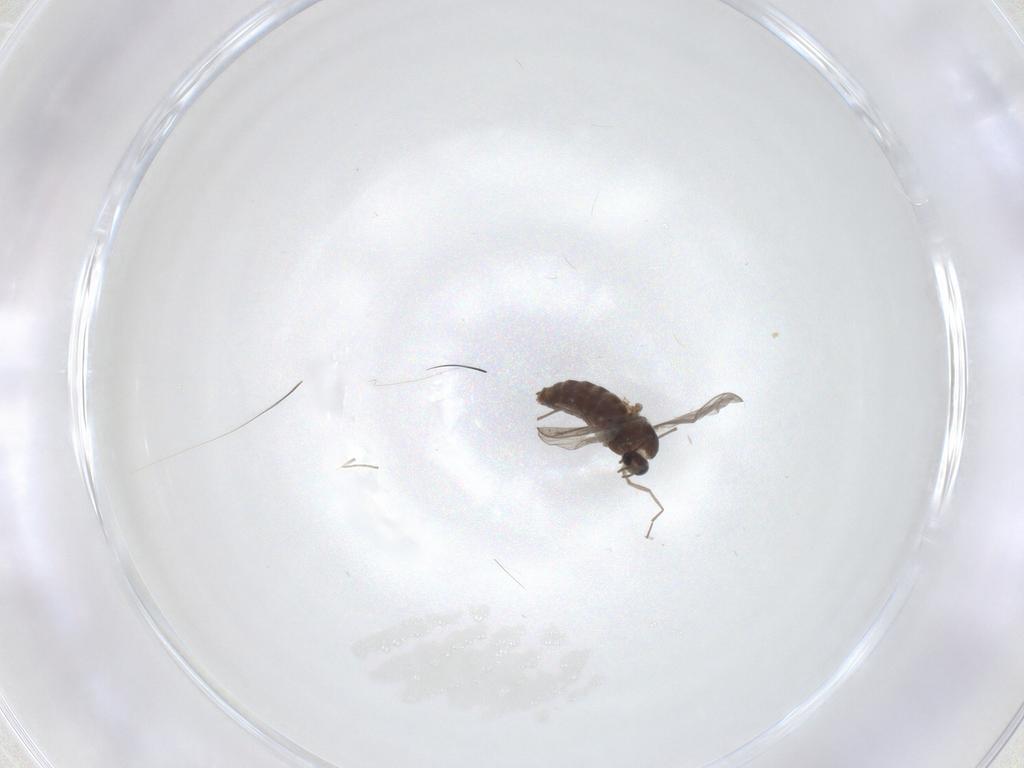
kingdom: Animalia
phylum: Arthropoda
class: Insecta
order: Diptera
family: Chironomidae
